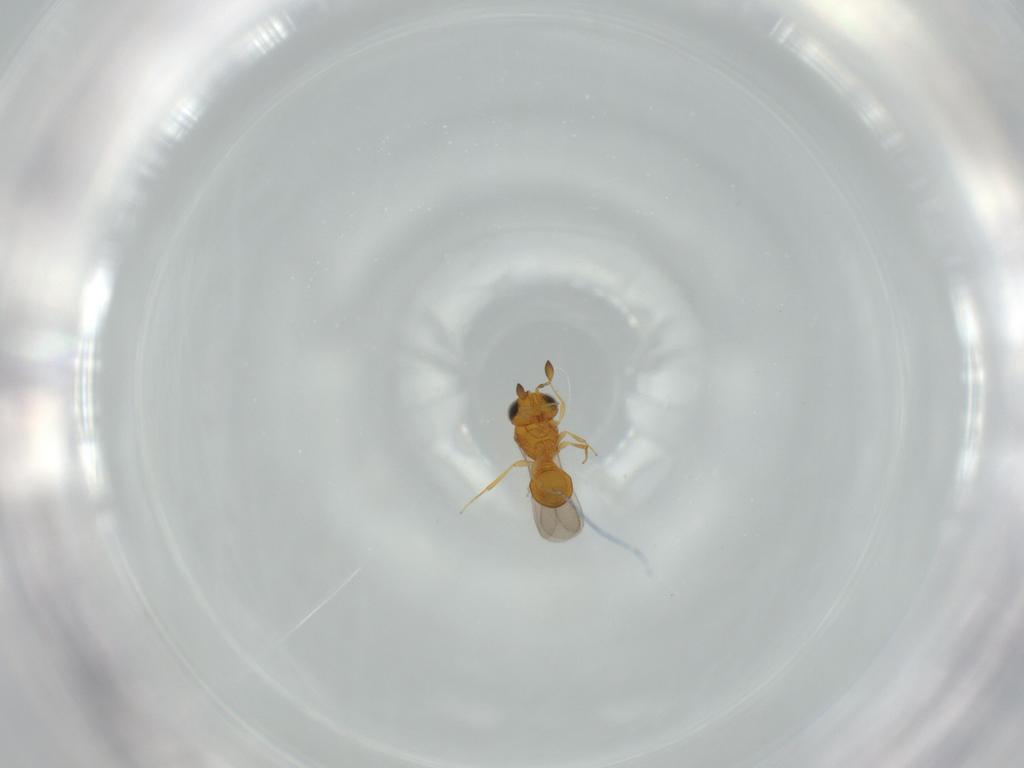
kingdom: Animalia
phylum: Arthropoda
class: Insecta
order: Hymenoptera
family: Scelionidae
